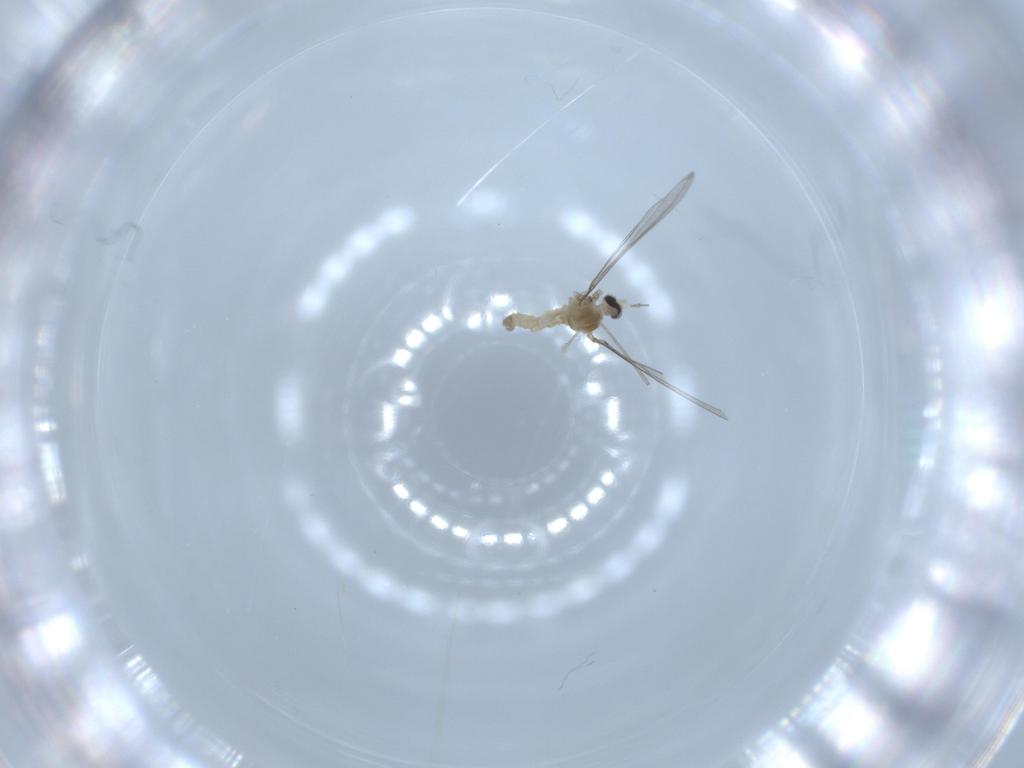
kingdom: Animalia
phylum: Arthropoda
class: Insecta
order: Diptera
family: Cecidomyiidae
